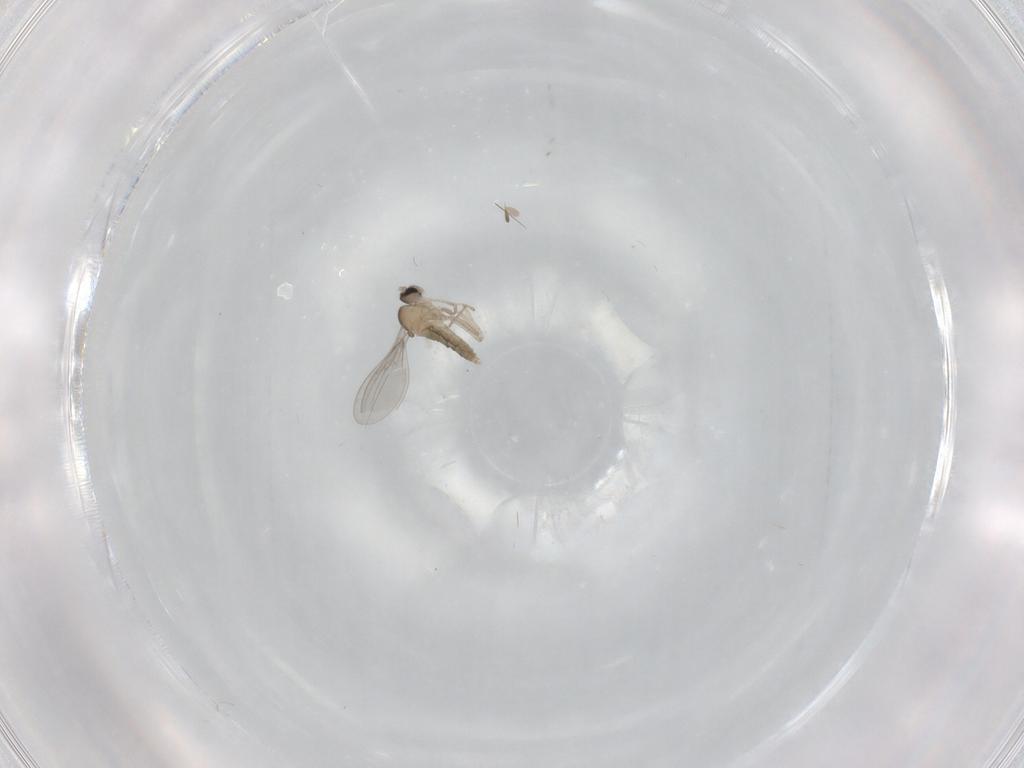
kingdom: Animalia
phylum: Arthropoda
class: Insecta
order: Diptera
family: Cecidomyiidae
